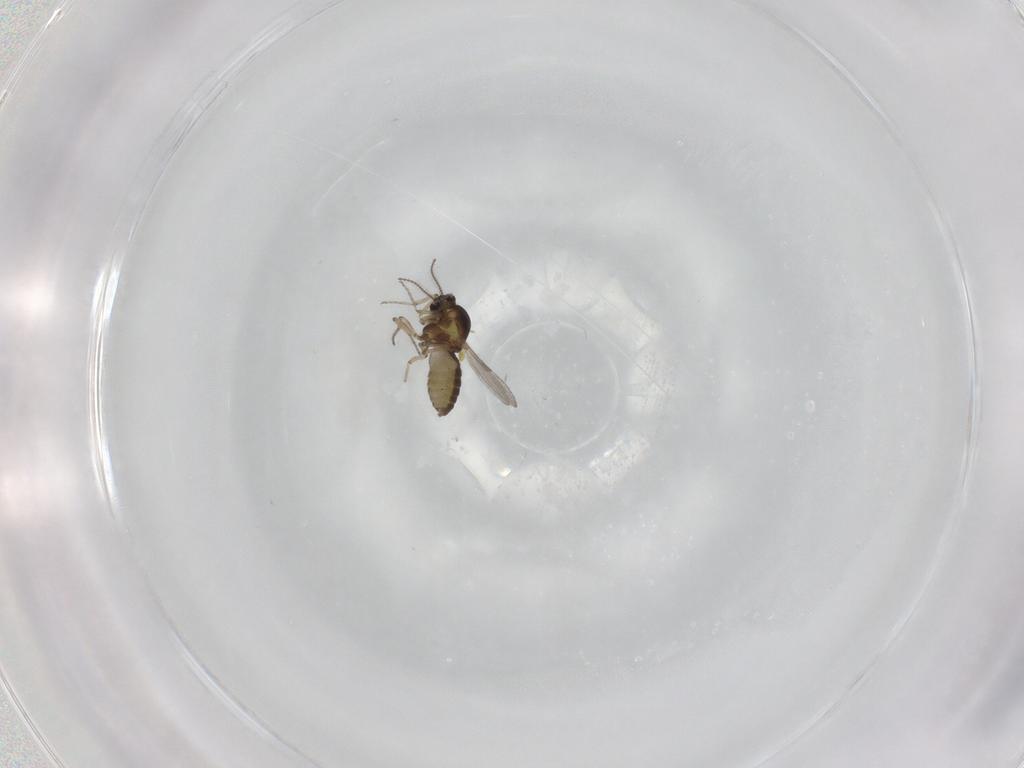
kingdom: Animalia
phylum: Arthropoda
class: Insecta
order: Diptera
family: Ceratopogonidae
